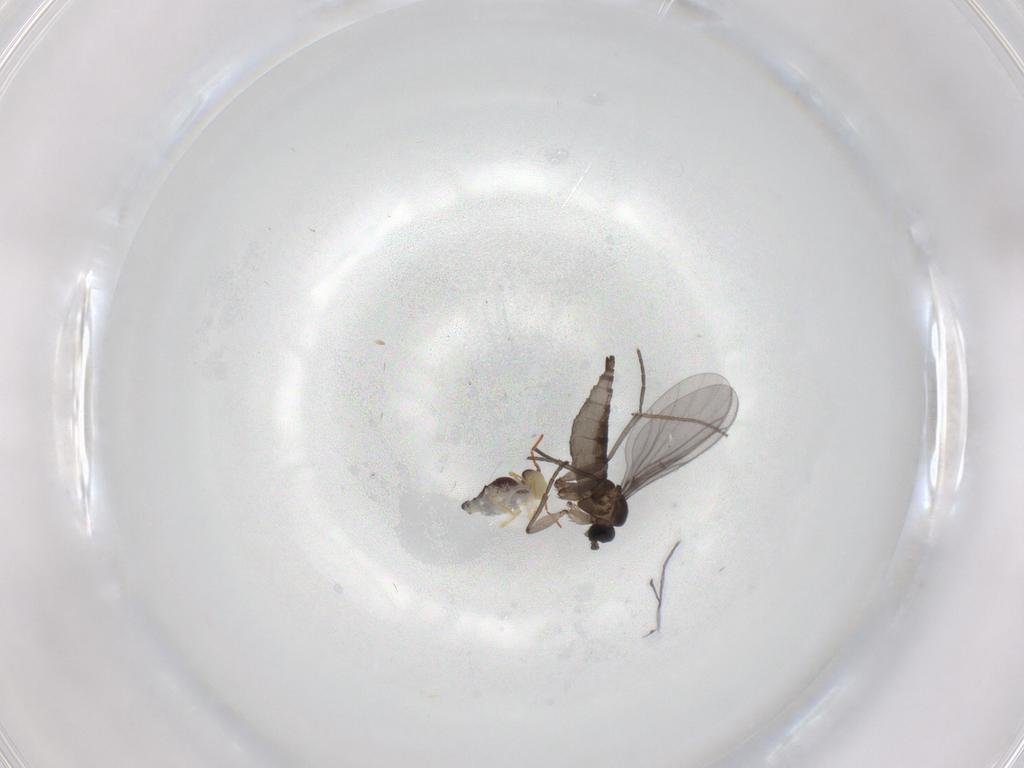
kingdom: Animalia
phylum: Arthropoda
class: Collembola
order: Symphypleona
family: Bourletiellidae
